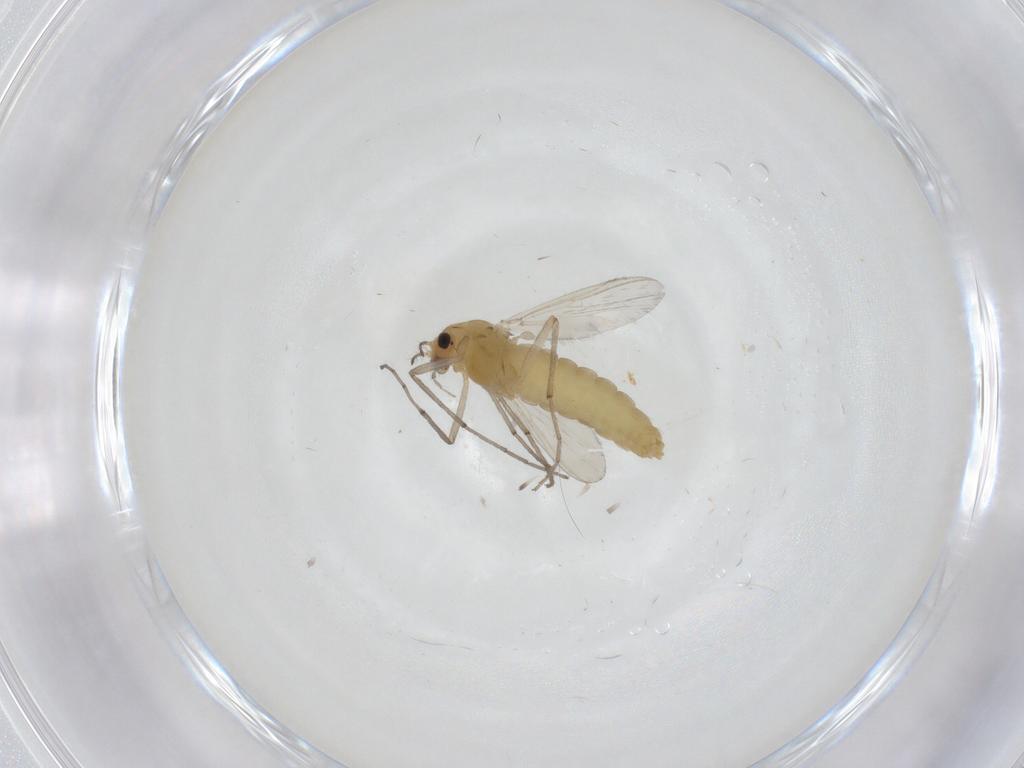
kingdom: Animalia
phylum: Arthropoda
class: Insecta
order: Diptera
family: Chironomidae
